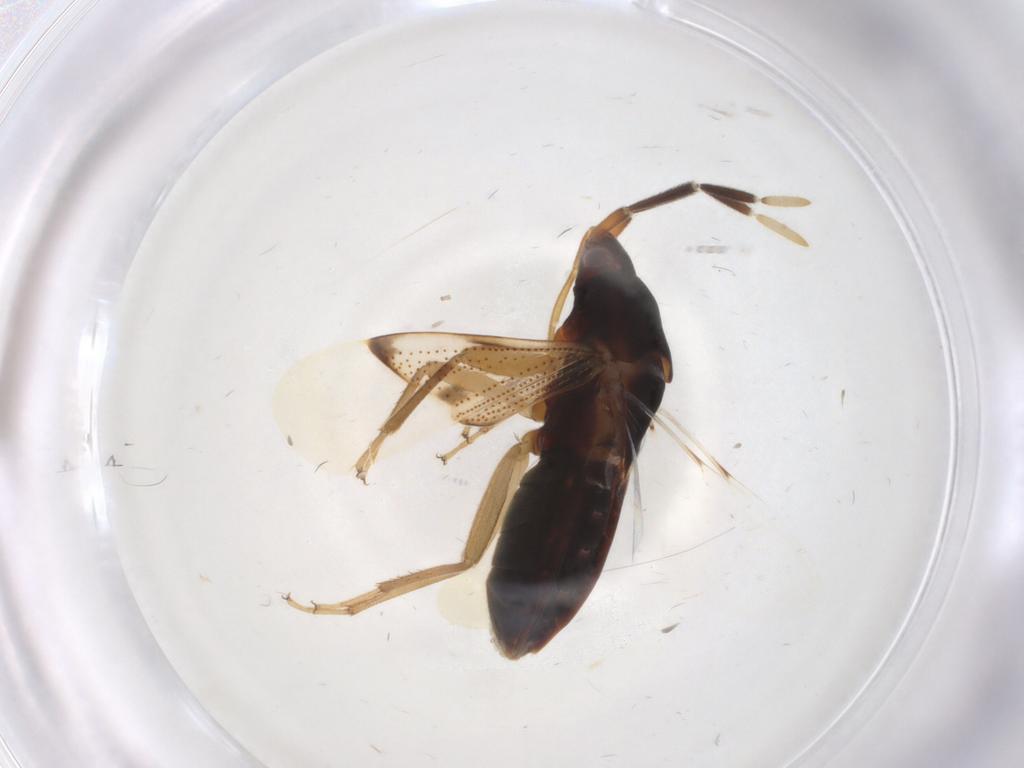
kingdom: Animalia
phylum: Arthropoda
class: Insecta
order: Hemiptera
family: Rhyparochromidae
